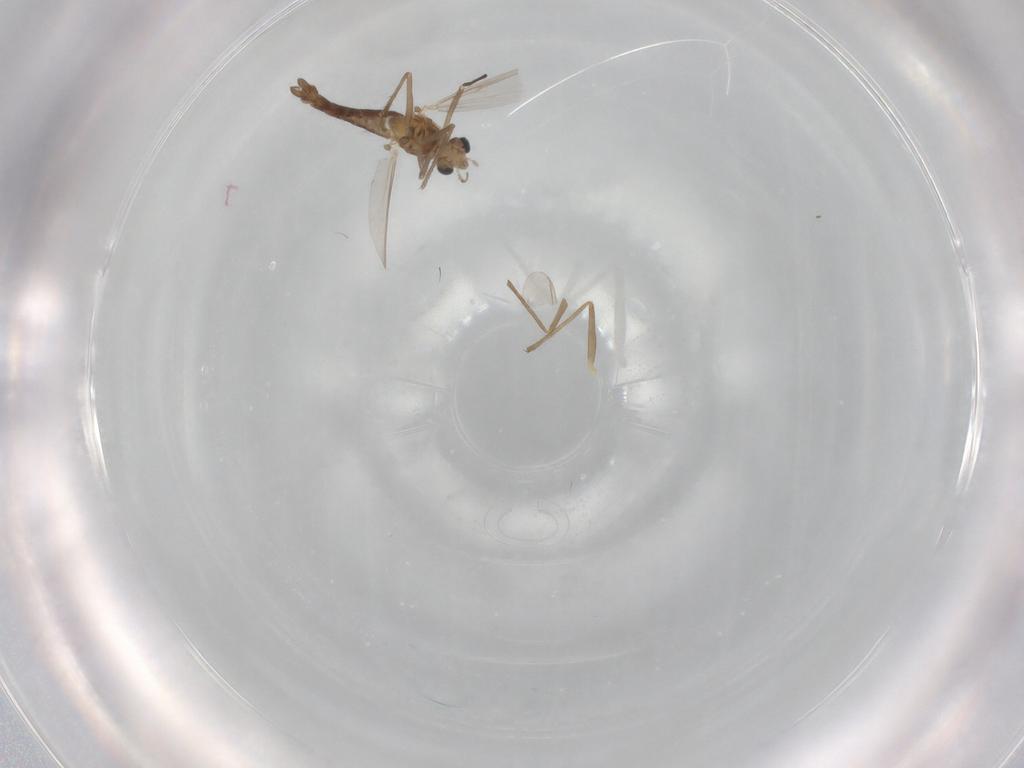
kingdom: Animalia
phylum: Arthropoda
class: Insecta
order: Diptera
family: Chironomidae
